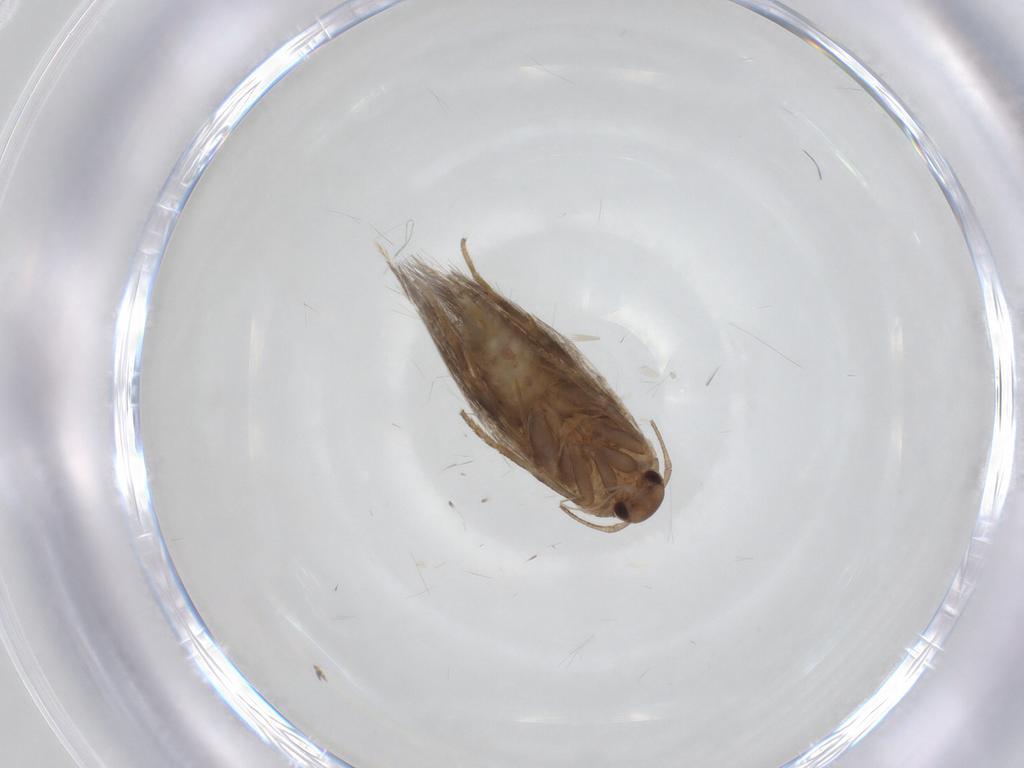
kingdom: Animalia
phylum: Arthropoda
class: Insecta
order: Lepidoptera
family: Elachistidae
